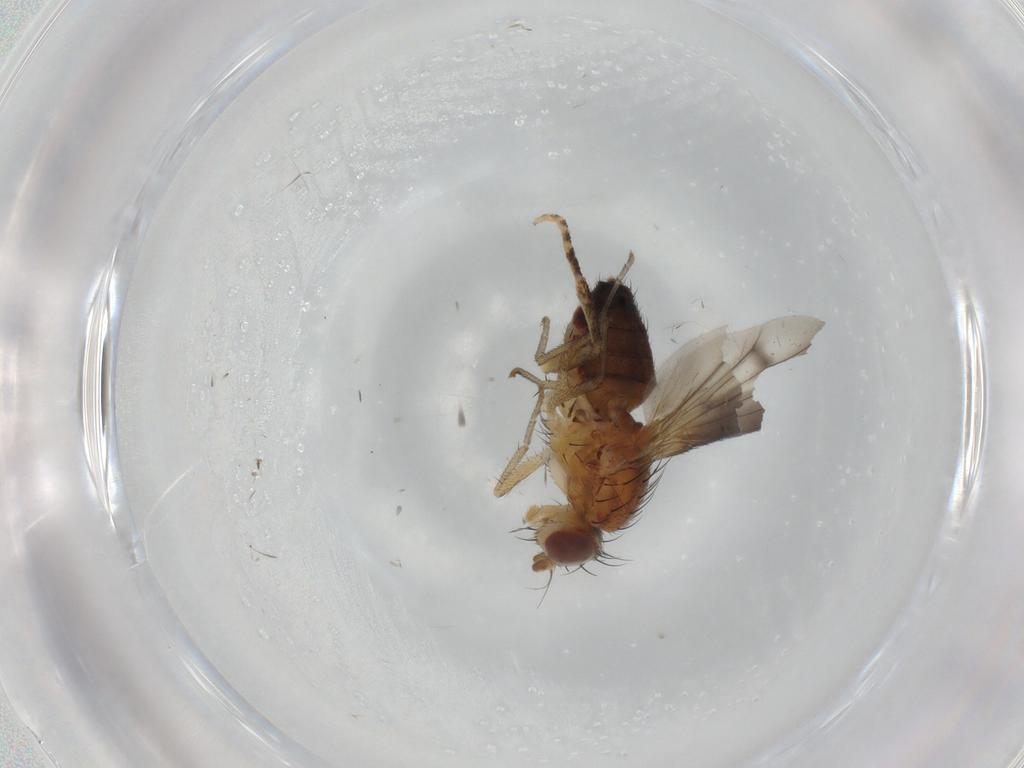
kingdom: Animalia
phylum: Arthropoda
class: Insecta
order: Diptera
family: Heleomyzidae
